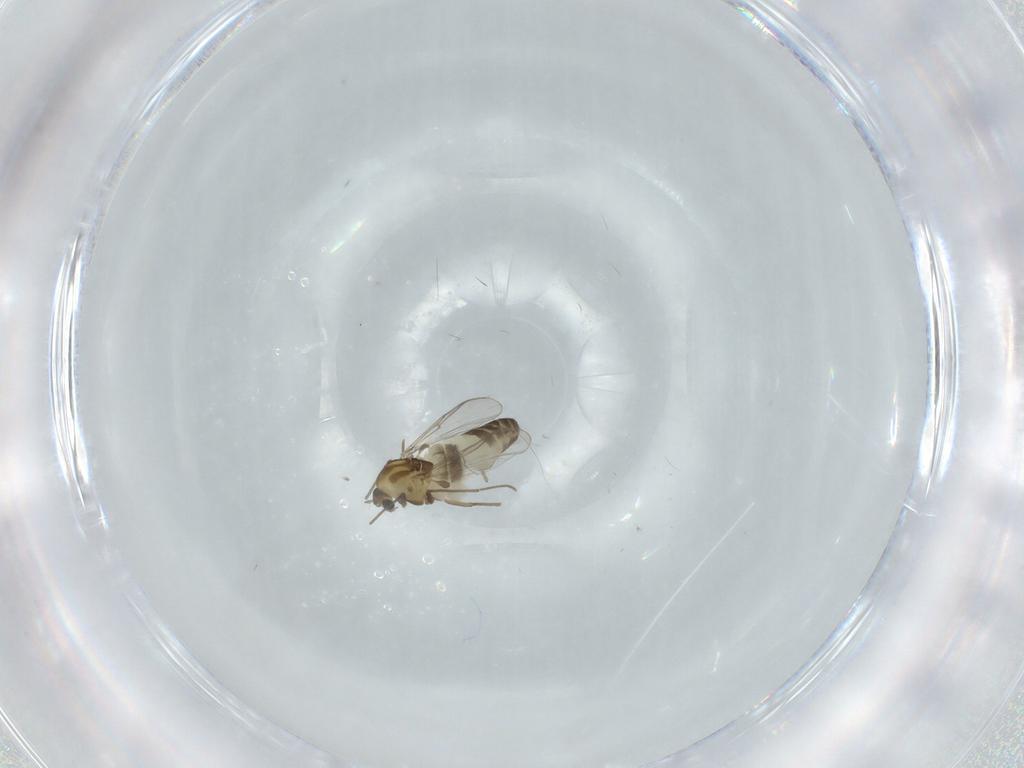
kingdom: Animalia
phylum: Arthropoda
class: Insecta
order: Diptera
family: Chironomidae
